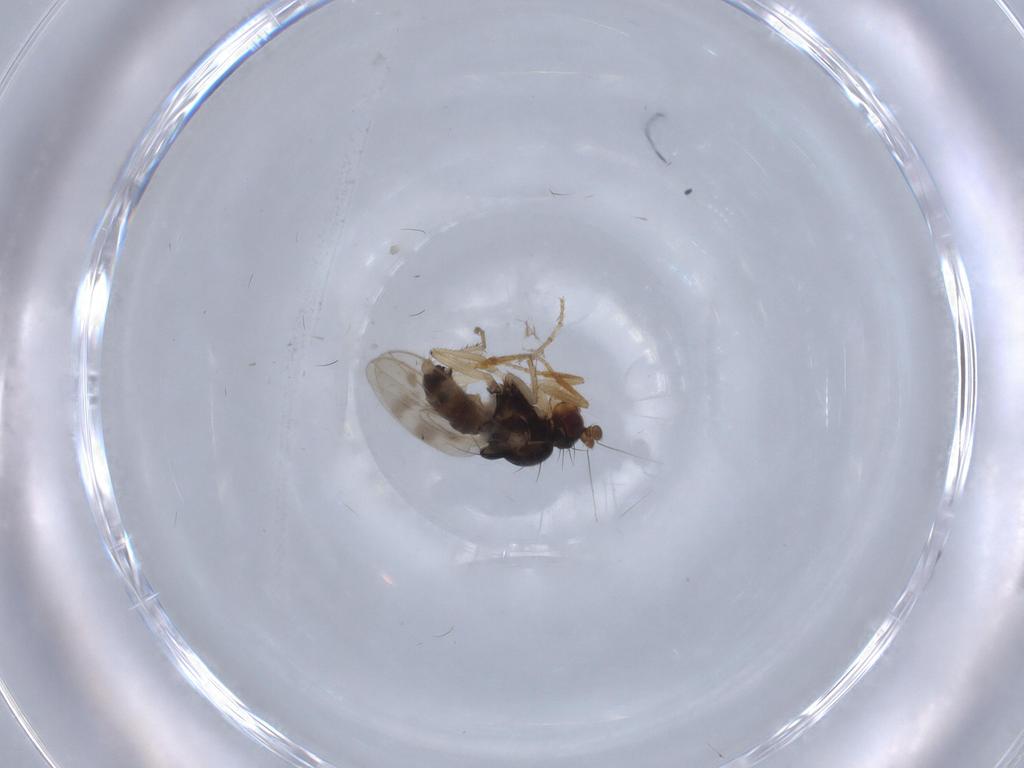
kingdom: Animalia
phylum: Arthropoda
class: Insecta
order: Diptera
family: Sphaeroceridae
